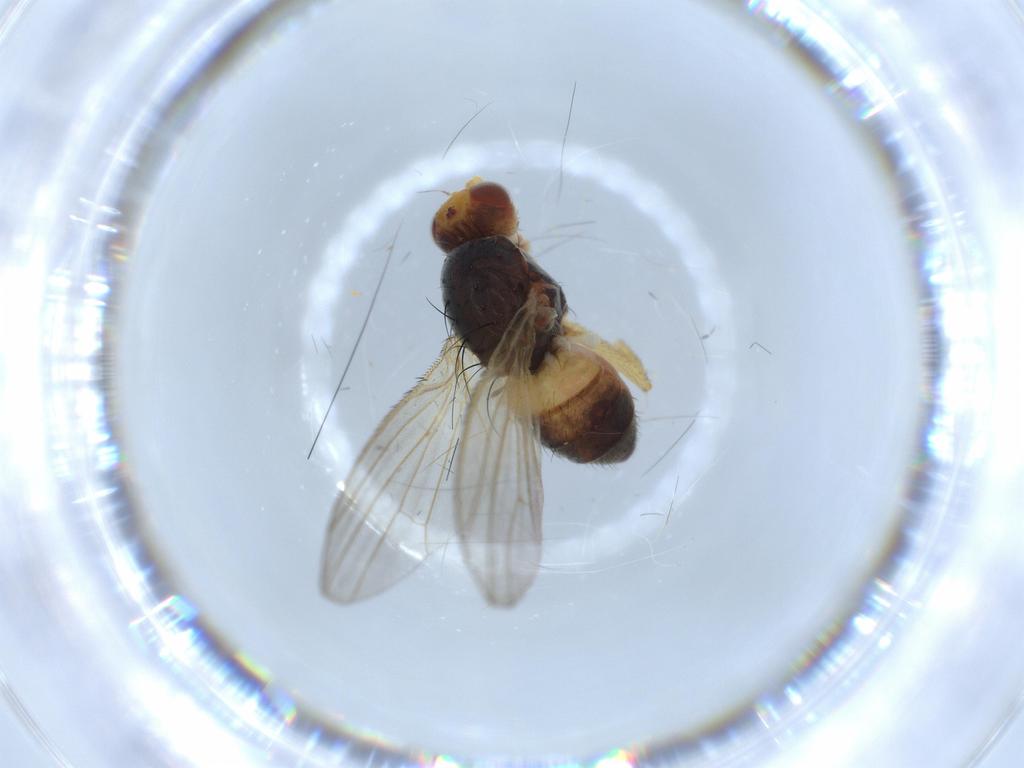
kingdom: Animalia
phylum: Arthropoda
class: Insecta
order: Diptera
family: Heleomyzidae
